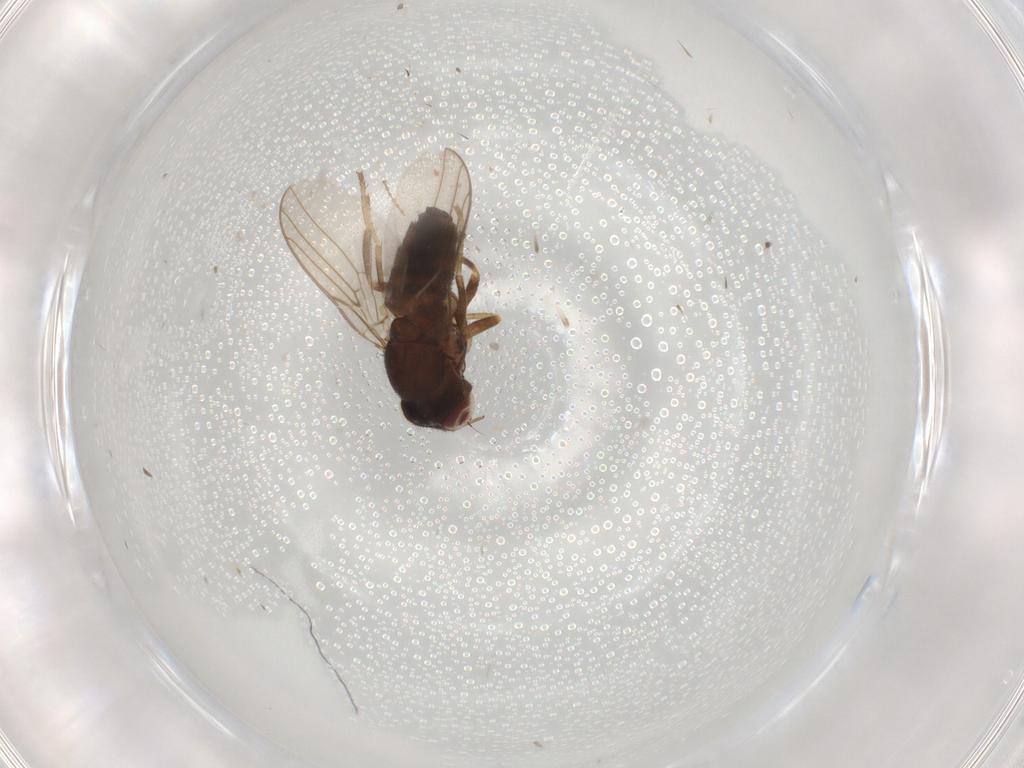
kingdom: Animalia
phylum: Arthropoda
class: Insecta
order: Diptera
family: Chloropidae
